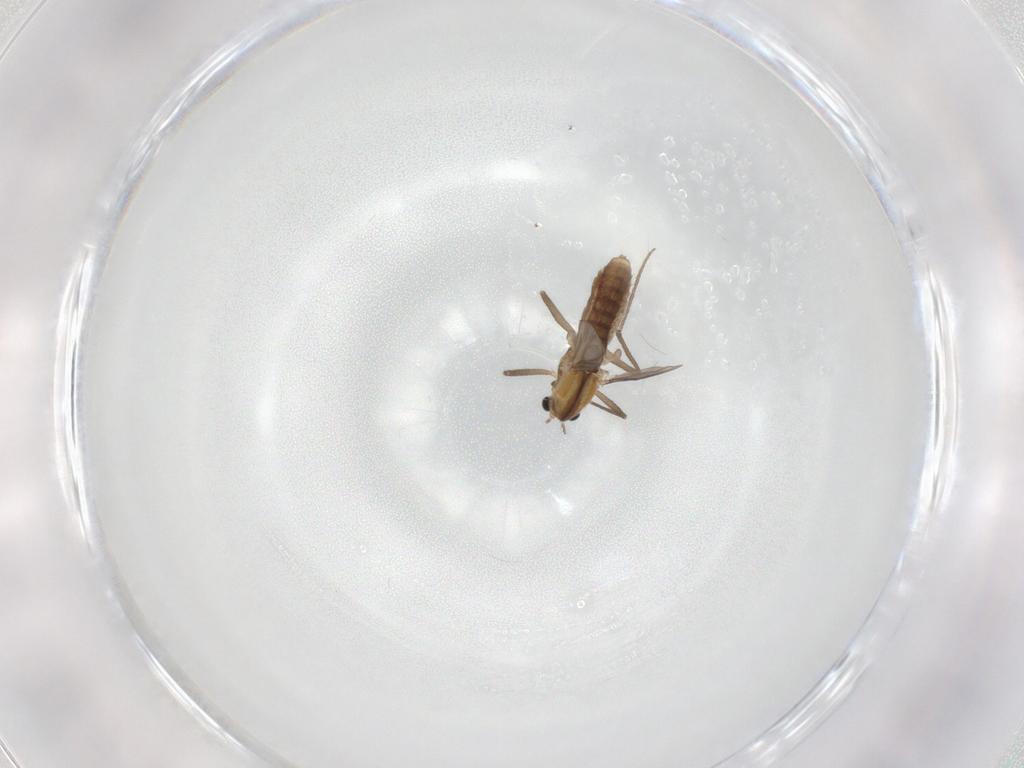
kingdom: Animalia
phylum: Arthropoda
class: Insecta
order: Diptera
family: Chironomidae
